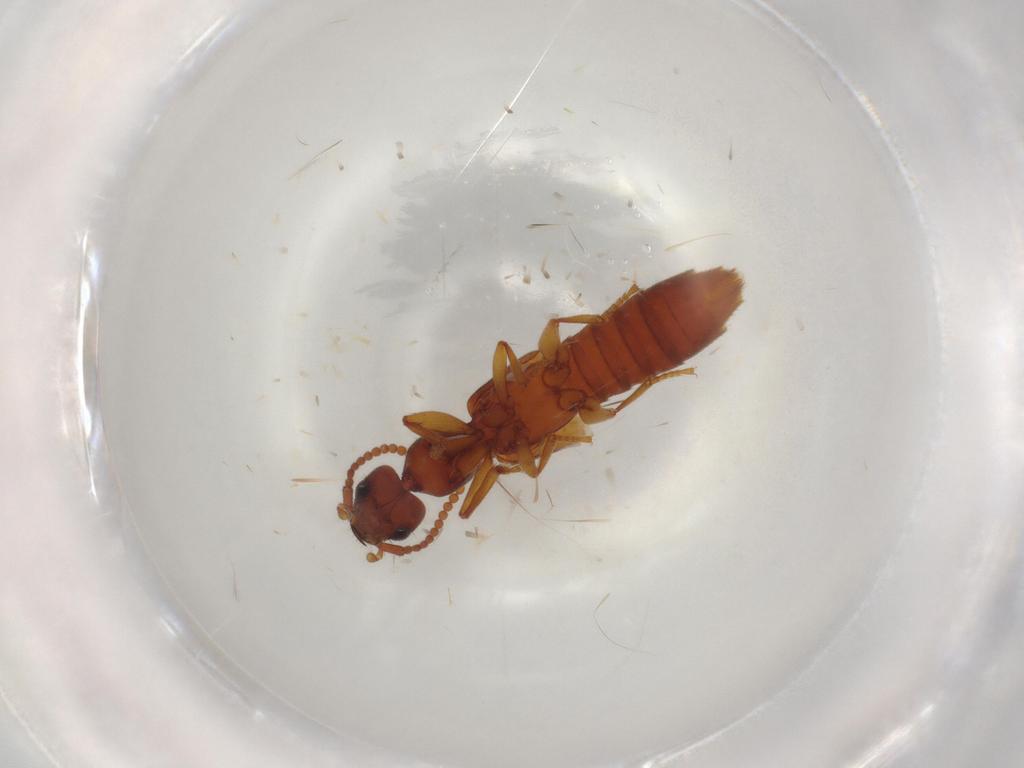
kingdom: Animalia
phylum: Arthropoda
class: Insecta
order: Coleoptera
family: Staphylinidae
